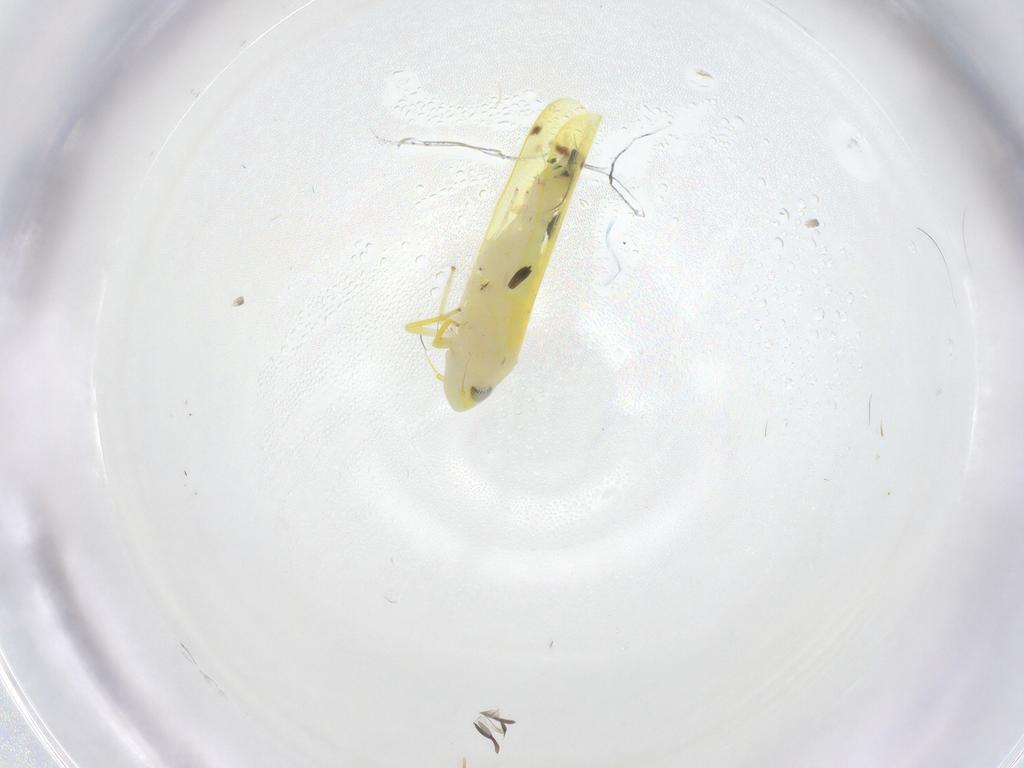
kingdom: Animalia
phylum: Arthropoda
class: Insecta
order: Hemiptera
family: Cicadellidae
